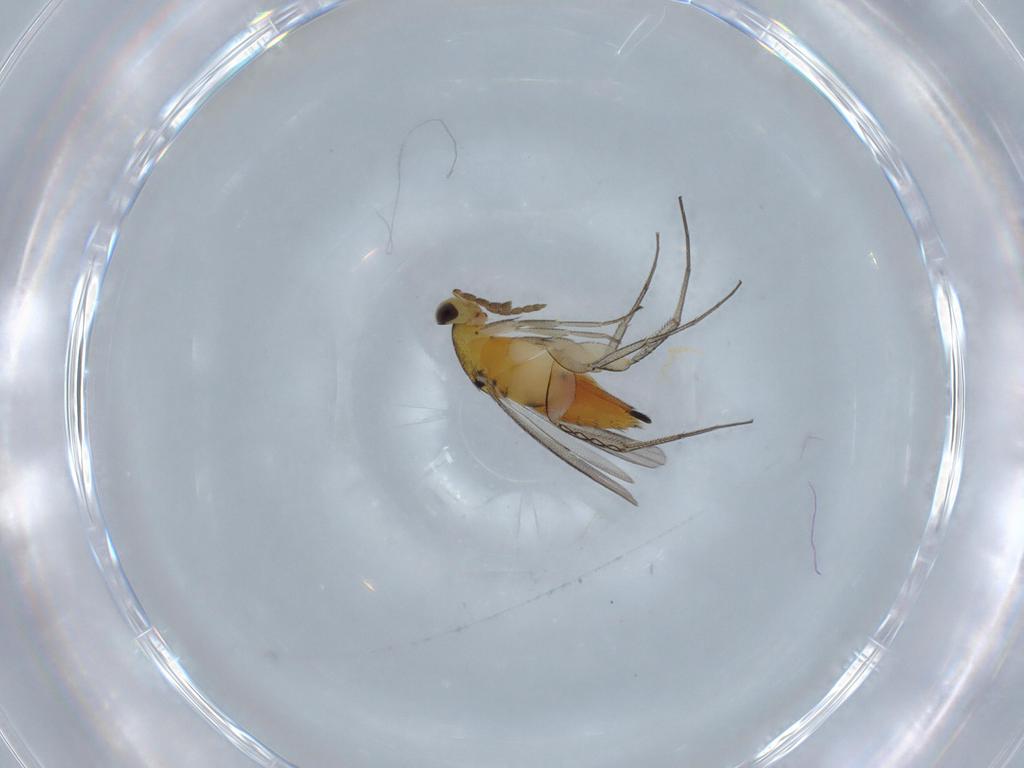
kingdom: Animalia
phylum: Arthropoda
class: Insecta
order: Hymenoptera
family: Eulophidae
